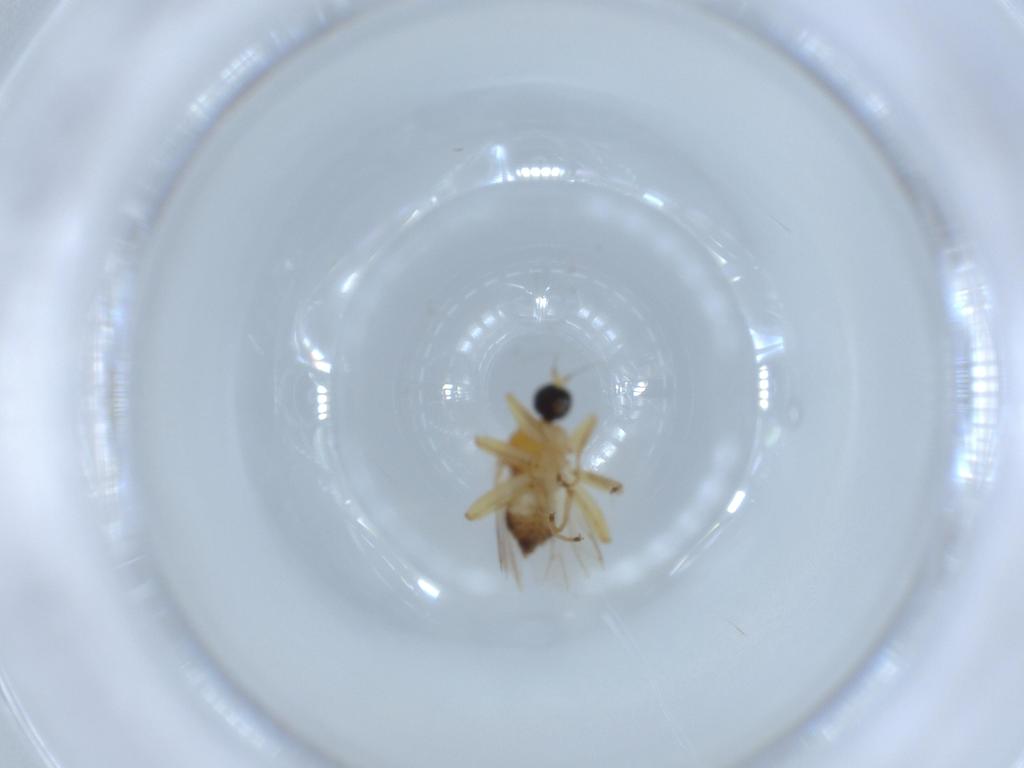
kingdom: Animalia
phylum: Arthropoda
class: Insecta
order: Diptera
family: Hybotidae
